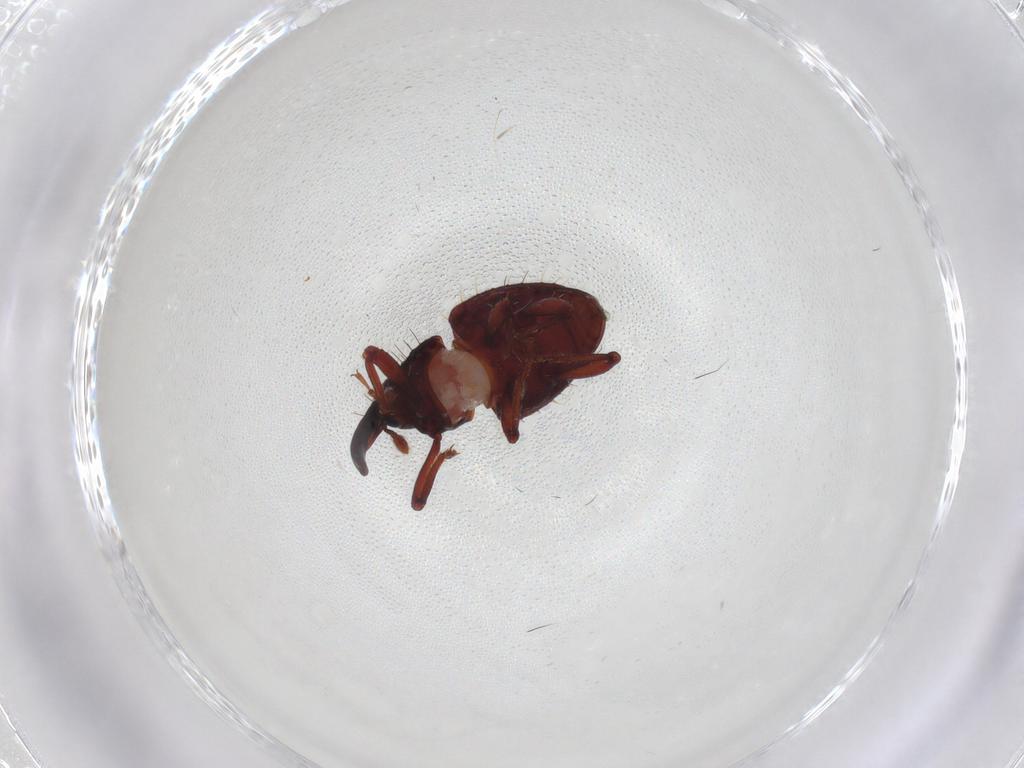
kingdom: Animalia
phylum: Arthropoda
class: Insecta
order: Coleoptera
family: Curculionidae
